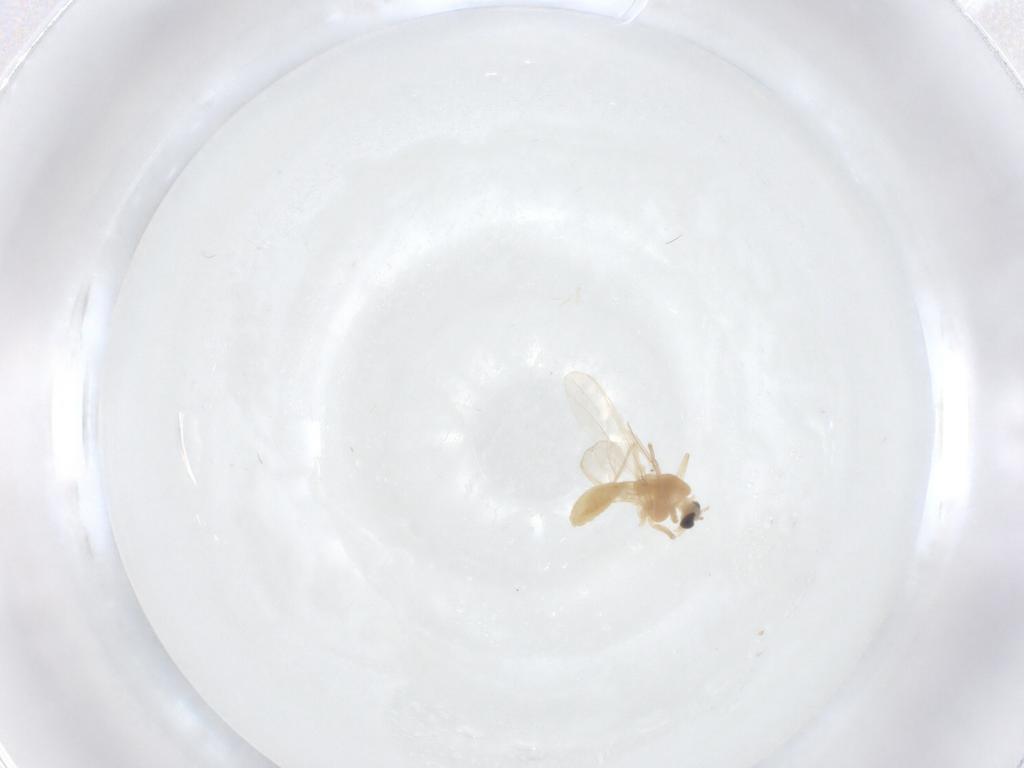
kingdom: Animalia
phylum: Arthropoda
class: Insecta
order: Diptera
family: Chironomidae
